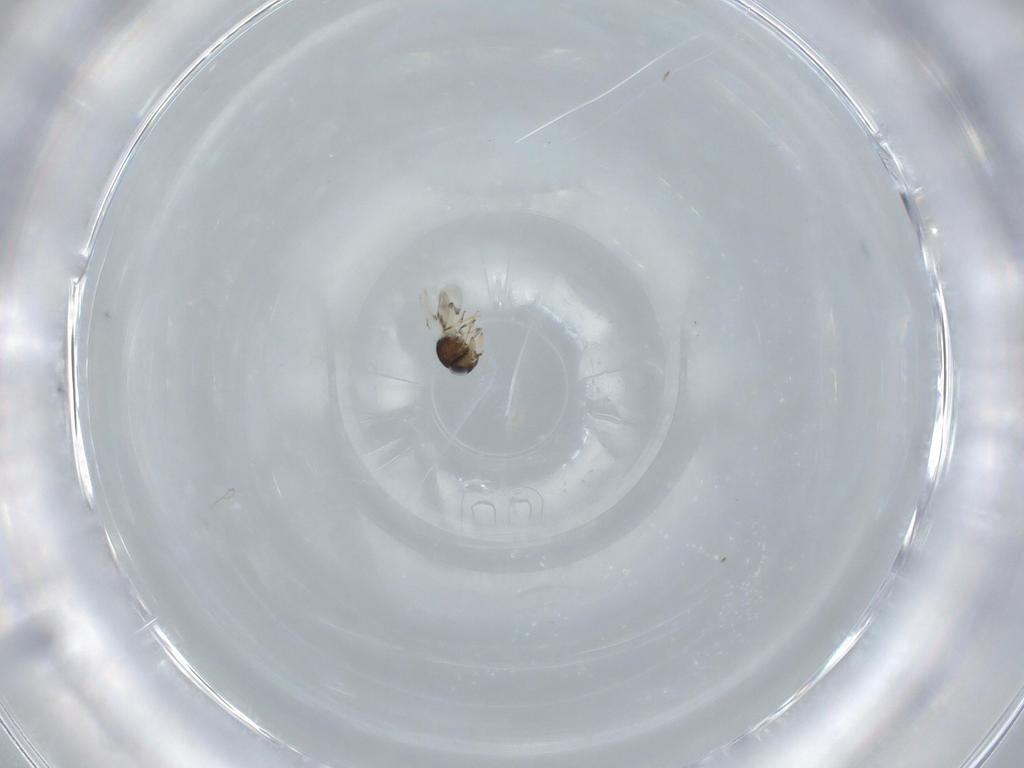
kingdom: Animalia
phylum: Arthropoda
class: Insecta
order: Hymenoptera
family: Scelionidae
